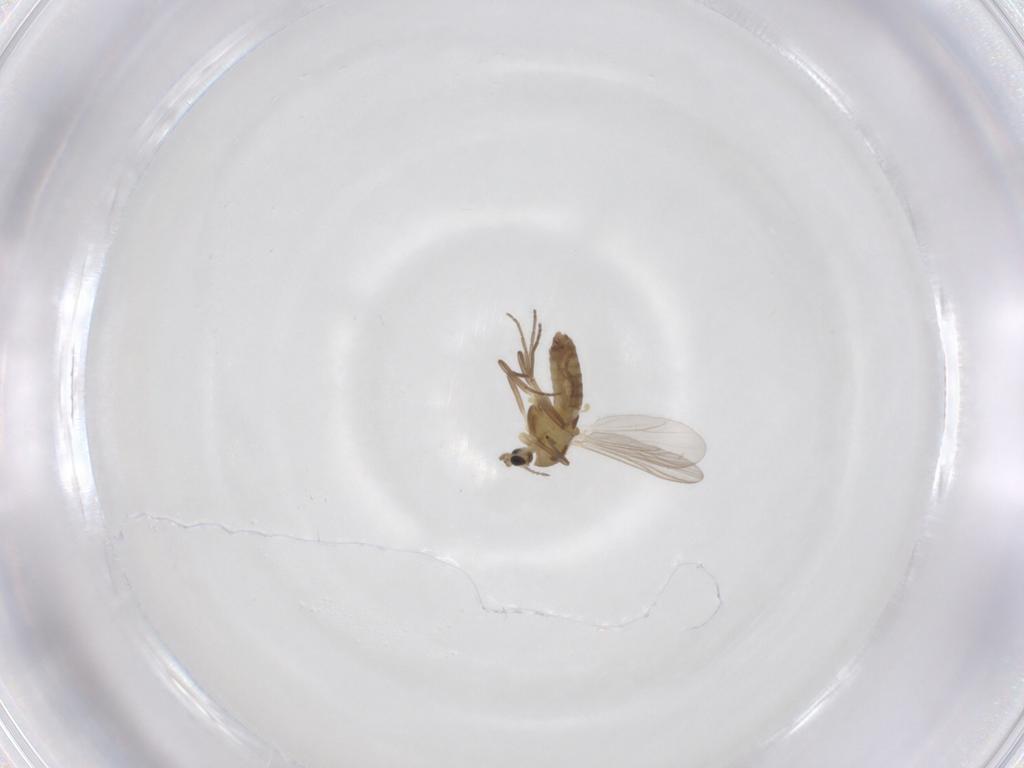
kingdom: Animalia
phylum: Arthropoda
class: Insecta
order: Diptera
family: Chironomidae
